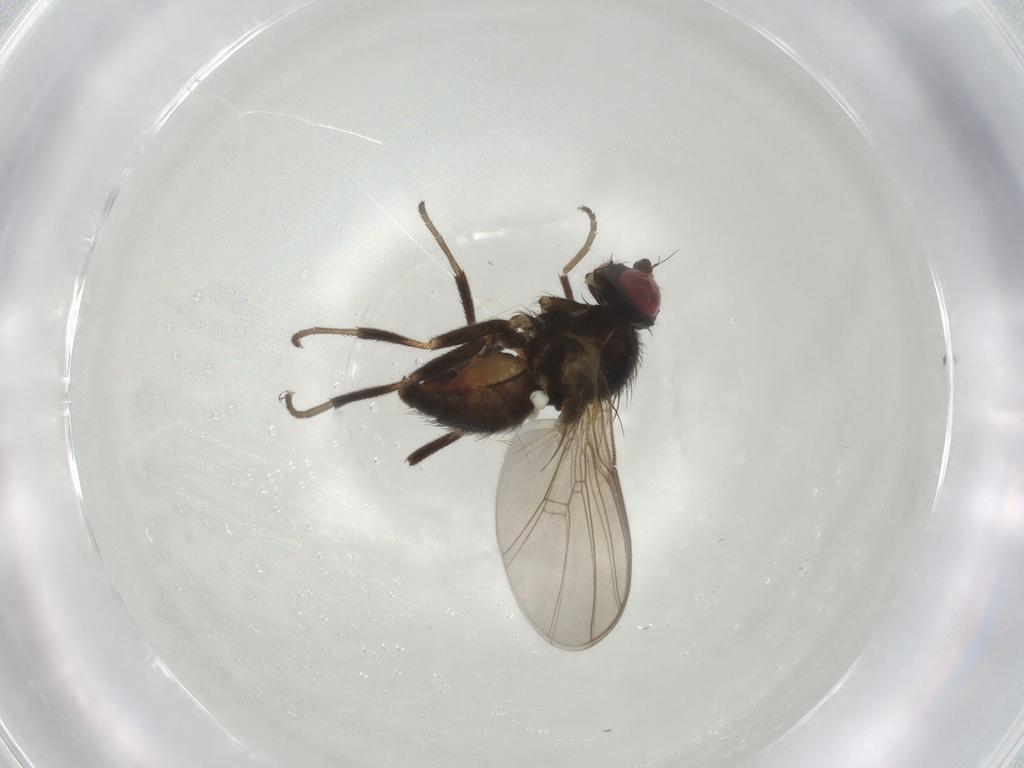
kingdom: Animalia
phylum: Arthropoda
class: Insecta
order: Diptera
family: Agromyzidae
